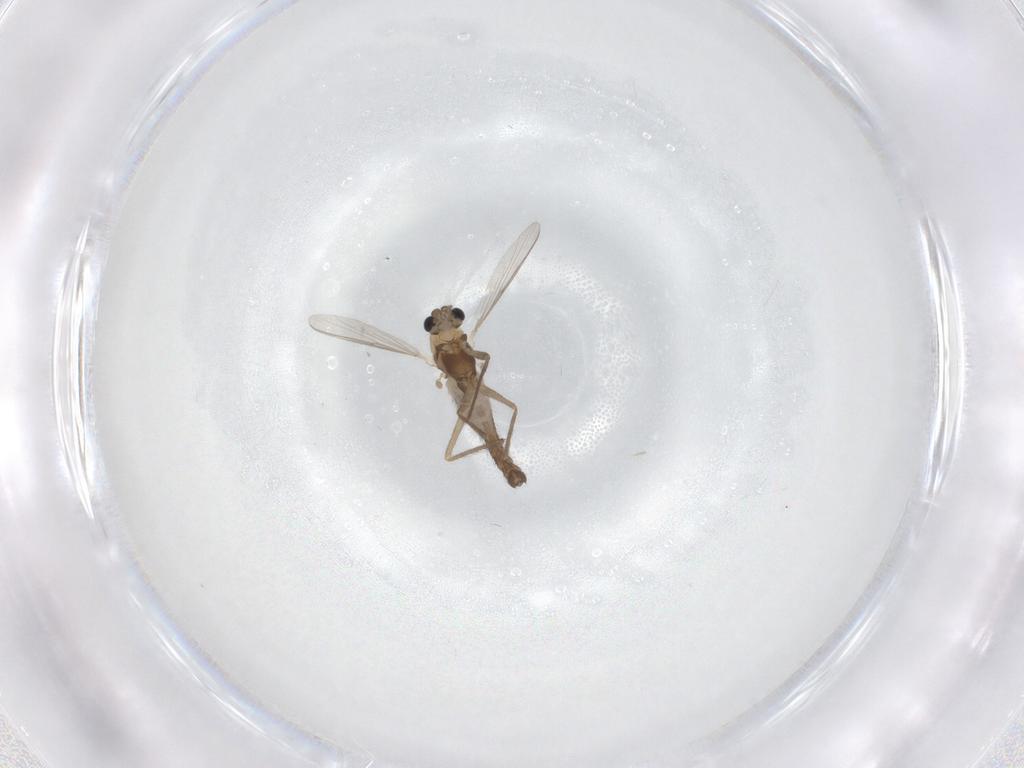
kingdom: Animalia
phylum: Arthropoda
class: Insecta
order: Diptera
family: Chironomidae
